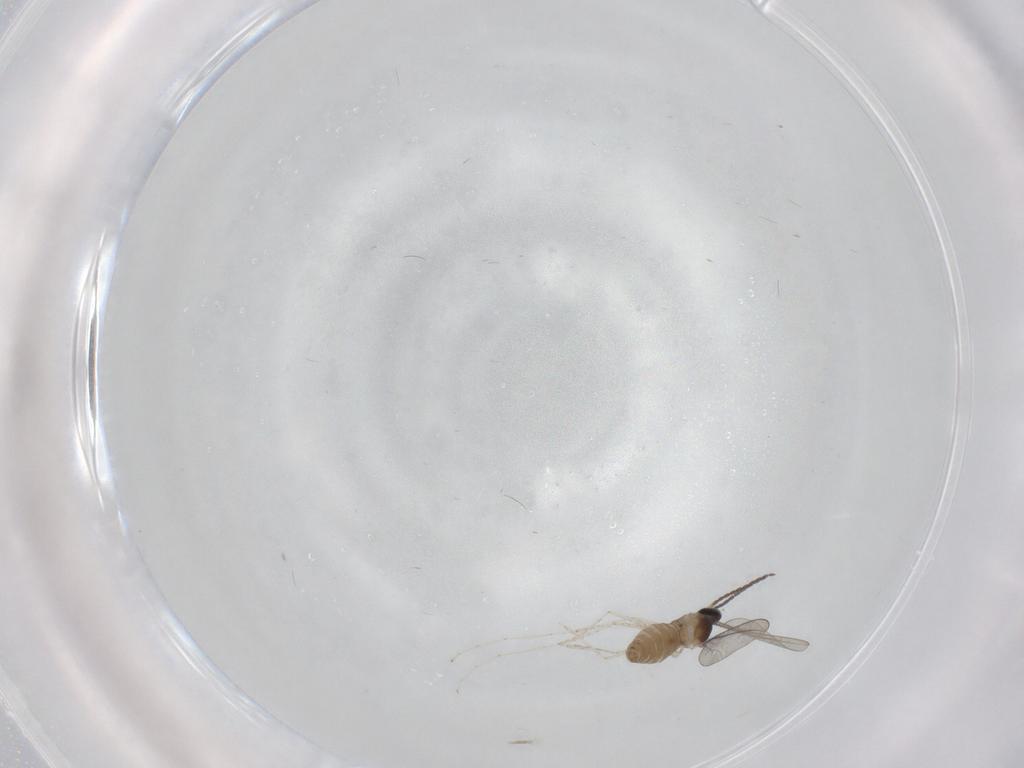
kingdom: Animalia
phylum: Arthropoda
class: Insecta
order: Diptera
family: Cecidomyiidae
